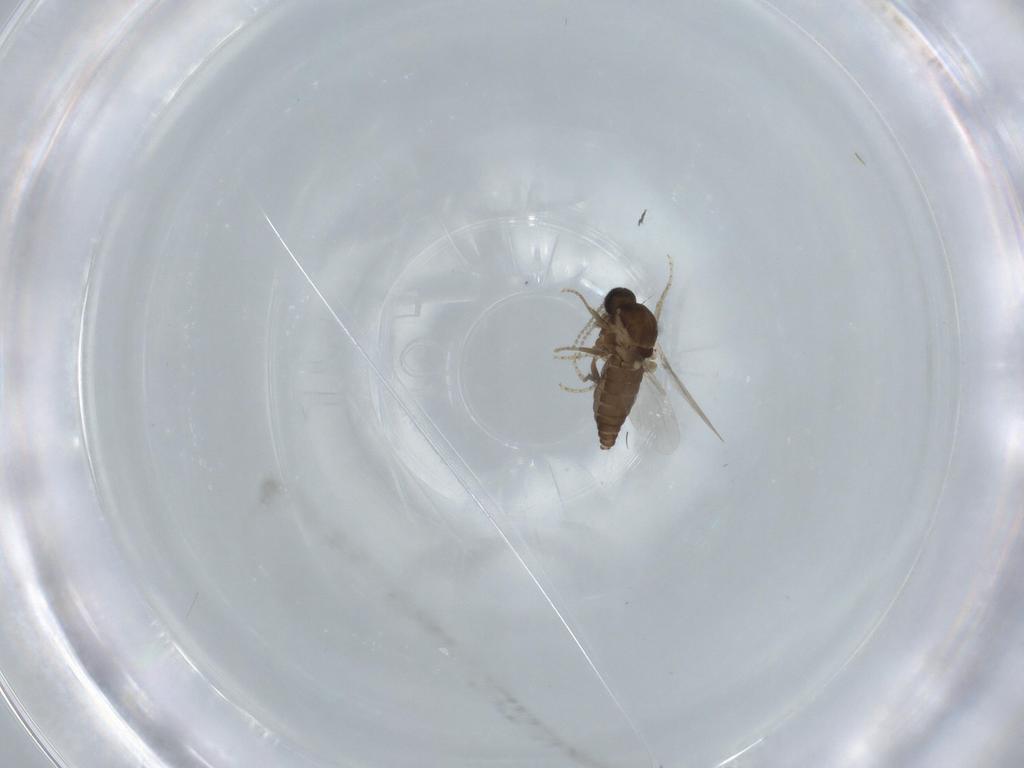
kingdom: Animalia
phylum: Arthropoda
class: Insecta
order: Diptera
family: Ceratopogonidae
